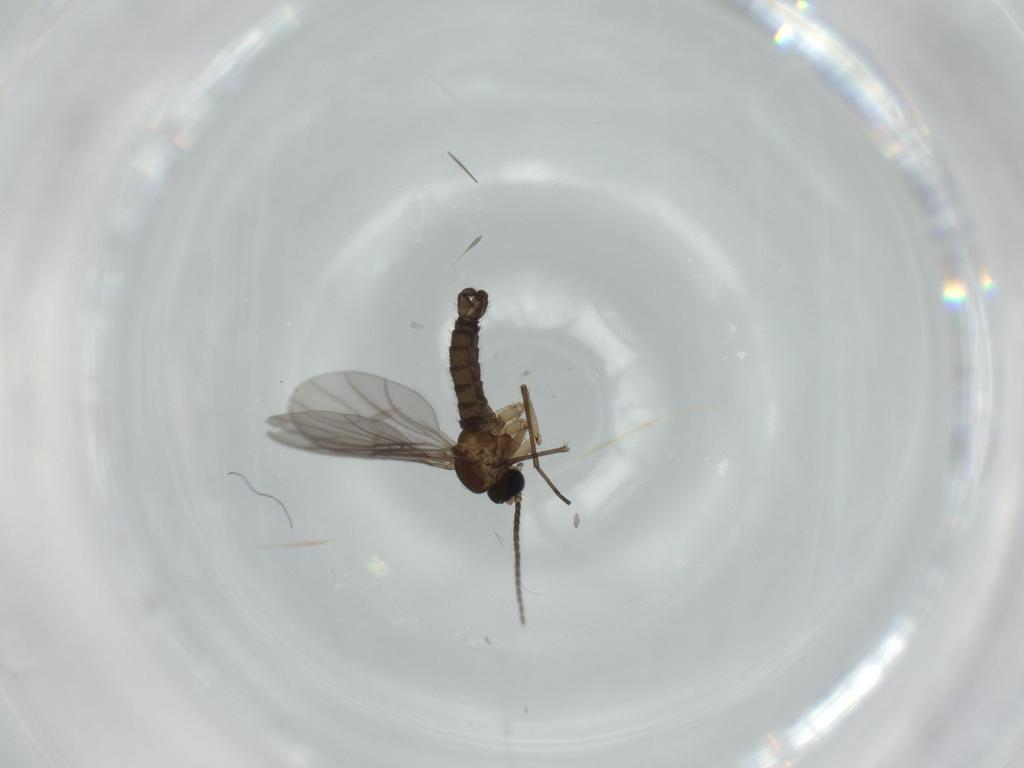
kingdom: Animalia
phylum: Arthropoda
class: Insecta
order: Diptera
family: Sciaridae
